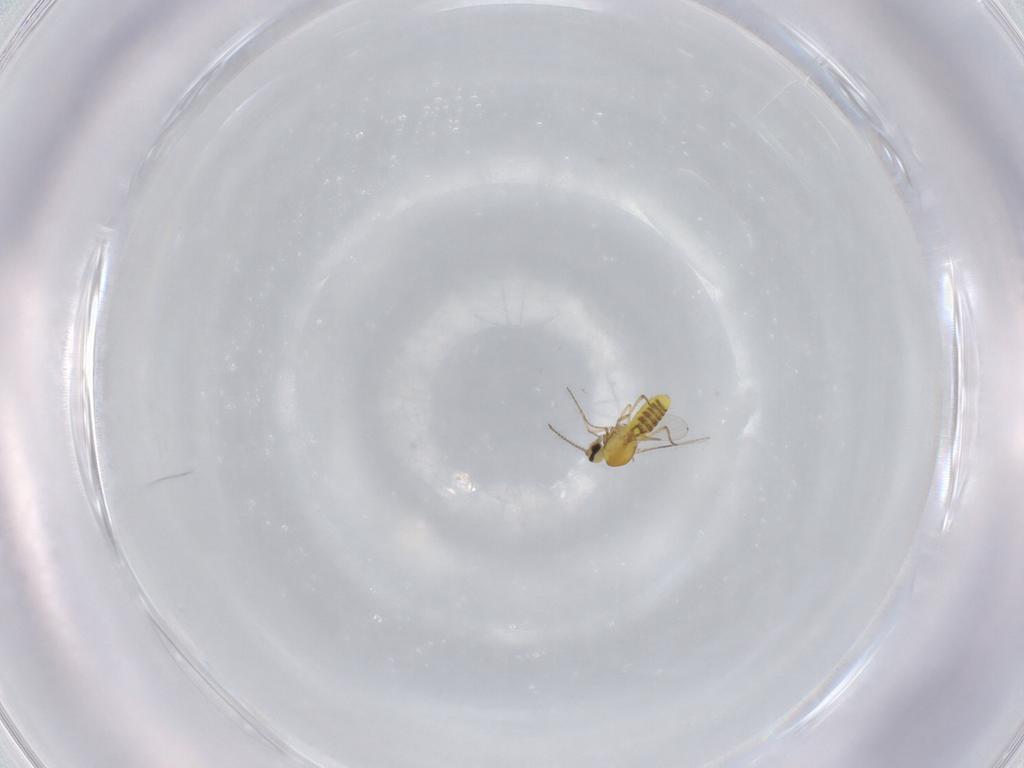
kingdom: Animalia
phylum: Arthropoda
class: Insecta
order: Diptera
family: Ceratopogonidae
